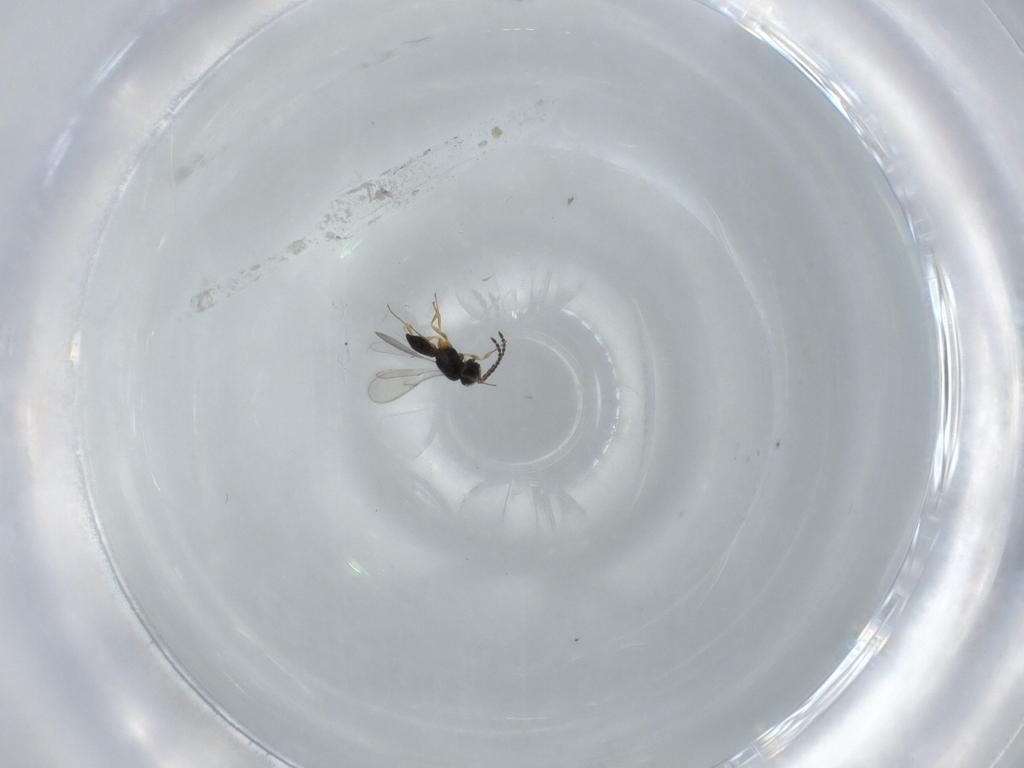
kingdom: Animalia
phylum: Arthropoda
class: Insecta
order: Hymenoptera
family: Scelionidae
